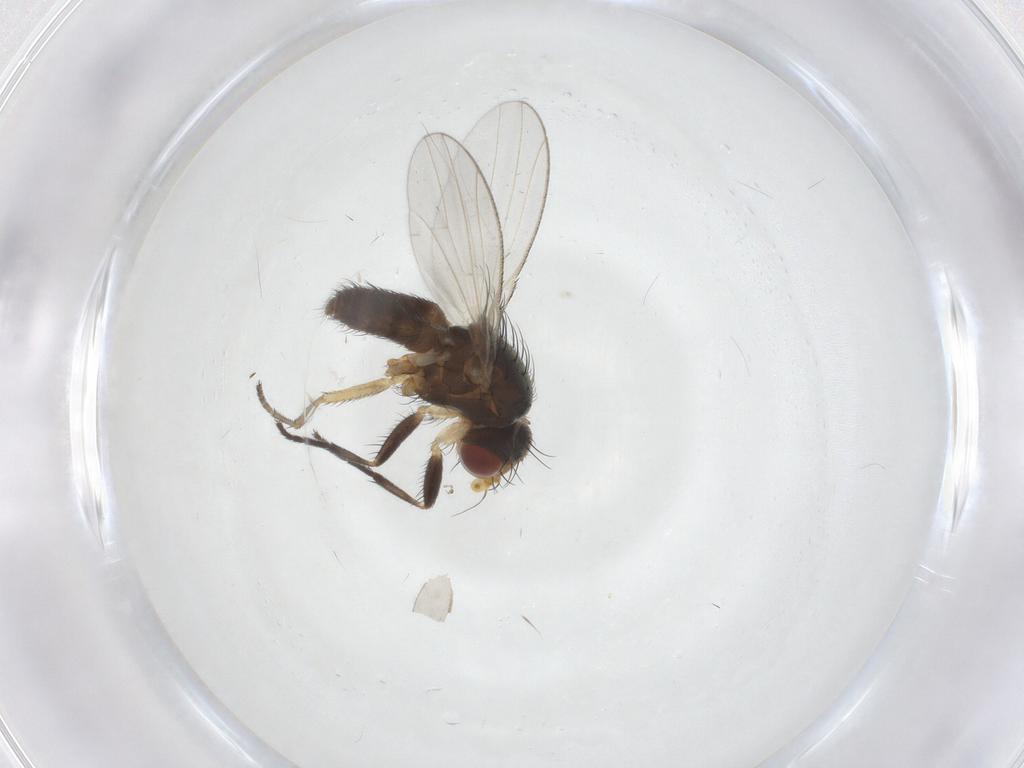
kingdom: Animalia
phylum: Arthropoda
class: Insecta
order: Diptera
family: Heleomyzidae
